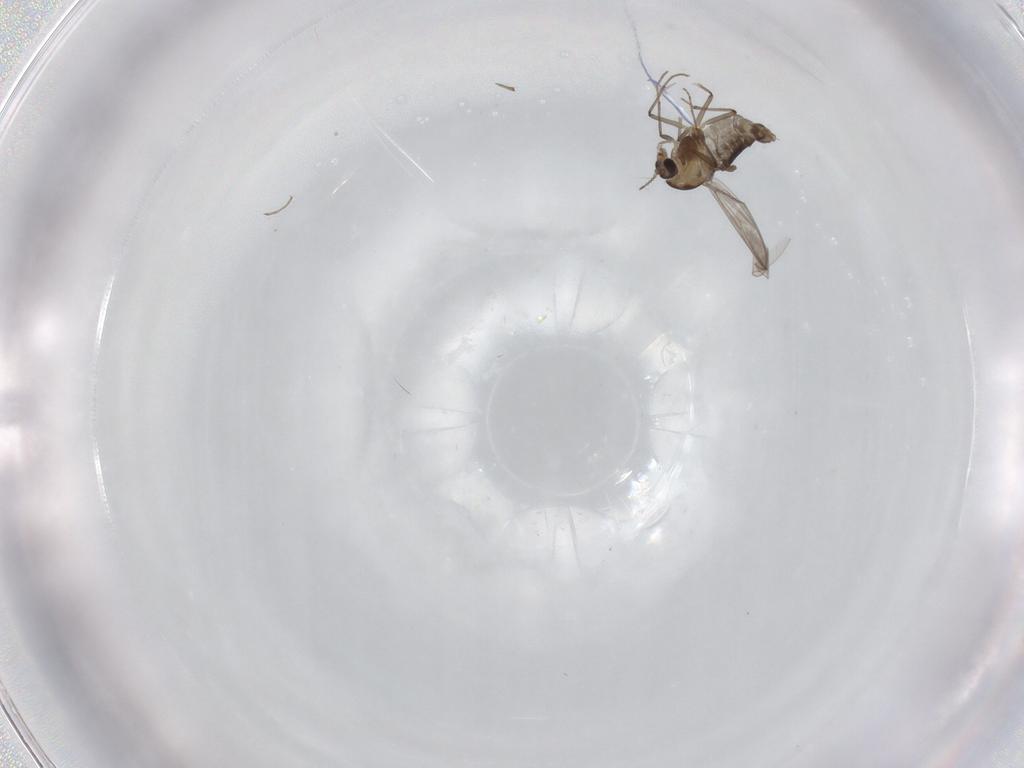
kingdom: Animalia
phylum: Arthropoda
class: Insecta
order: Diptera
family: Chironomidae
